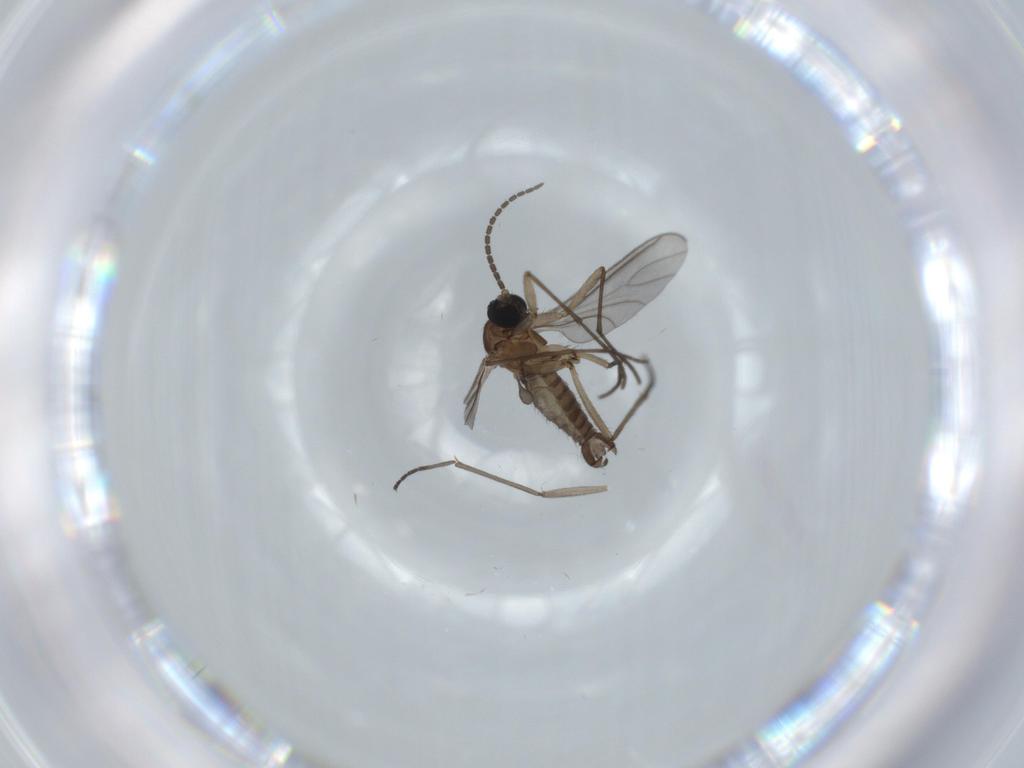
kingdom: Animalia
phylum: Arthropoda
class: Insecta
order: Diptera
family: Sciaridae
